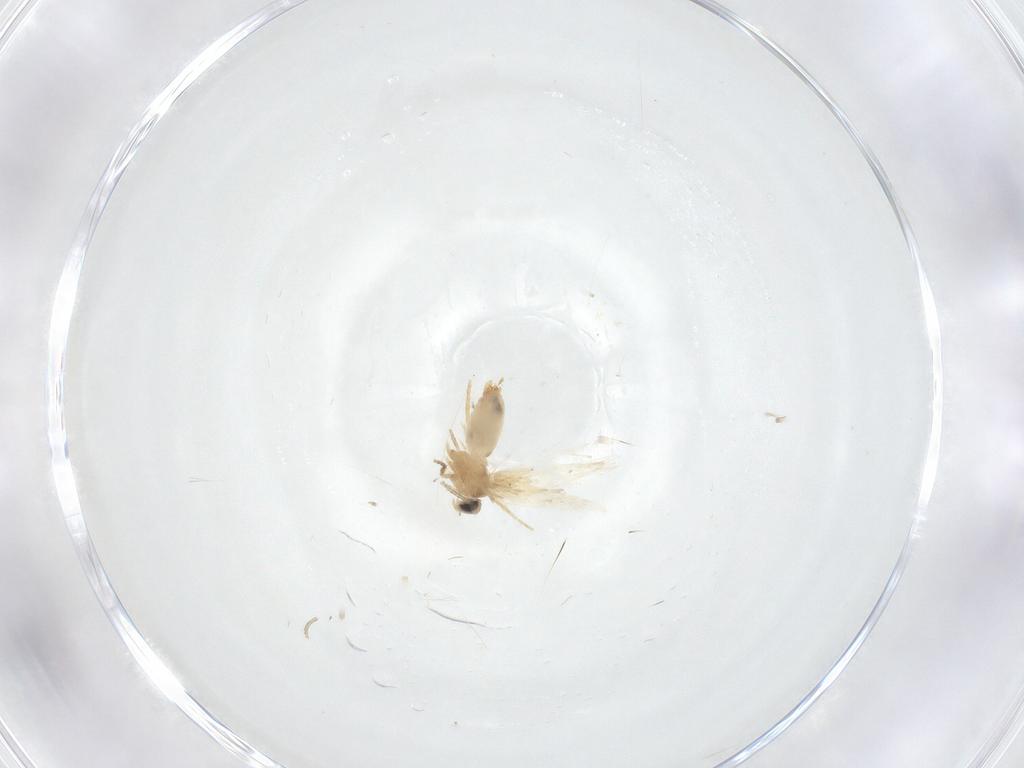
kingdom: Animalia
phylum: Arthropoda
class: Insecta
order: Lepidoptera
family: Crambidae
